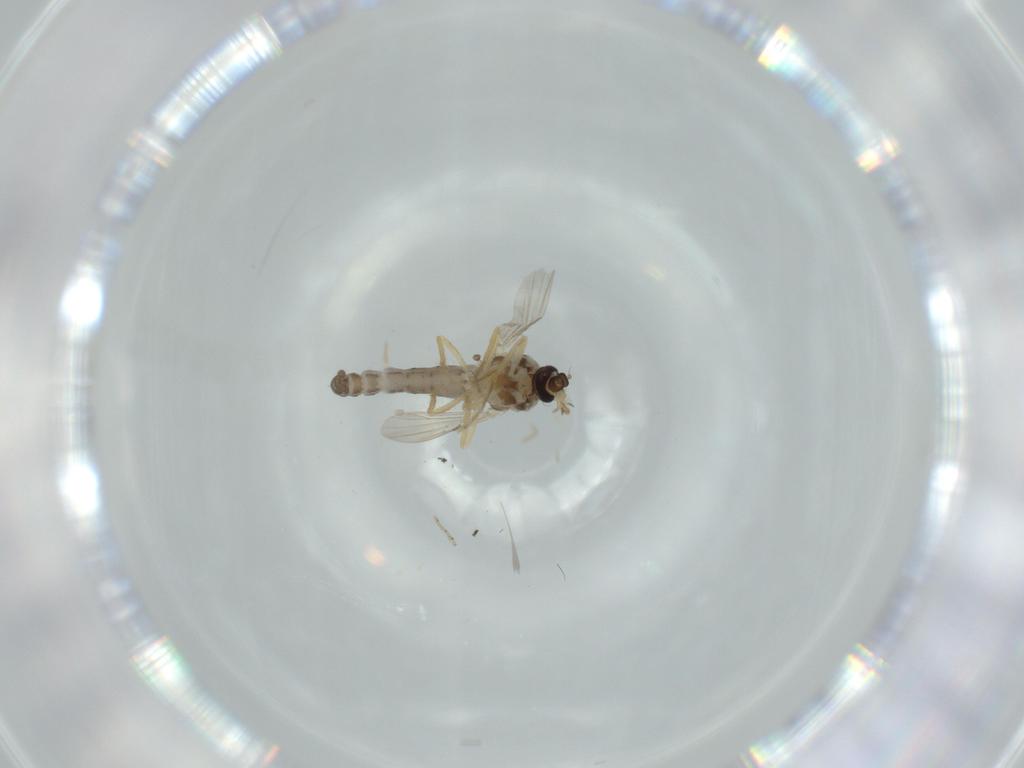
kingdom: Animalia
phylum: Arthropoda
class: Insecta
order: Diptera
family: Ceratopogonidae
